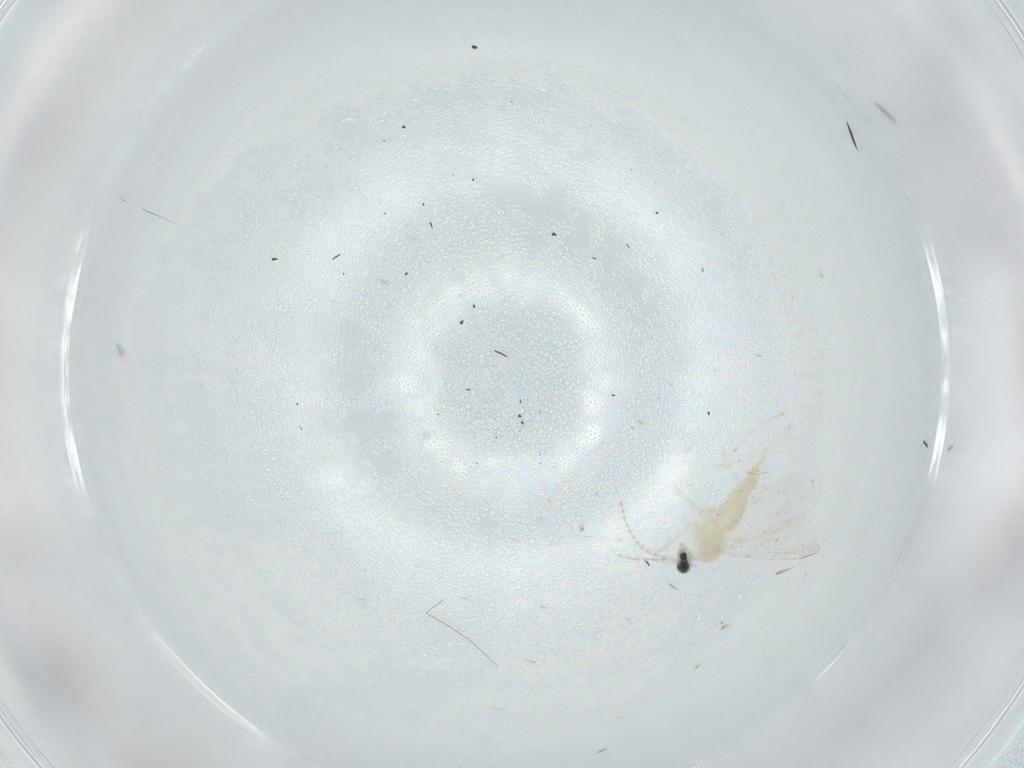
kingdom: Animalia
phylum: Arthropoda
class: Insecta
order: Diptera
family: Cecidomyiidae
